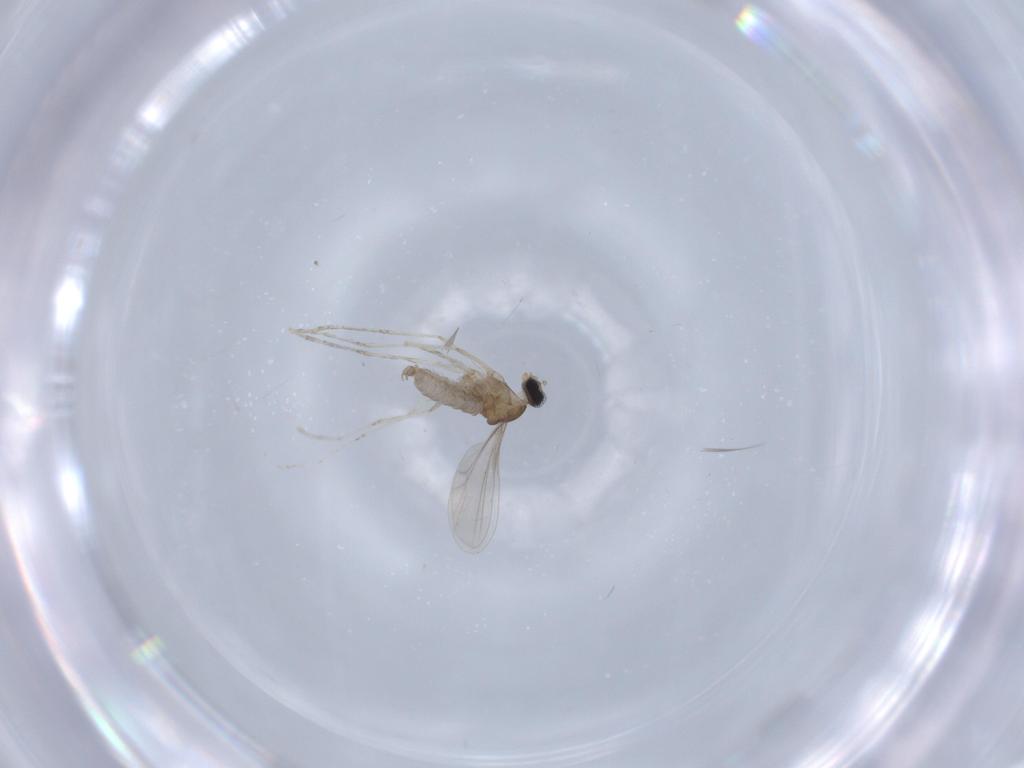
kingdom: Animalia
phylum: Arthropoda
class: Insecta
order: Diptera
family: Cecidomyiidae
